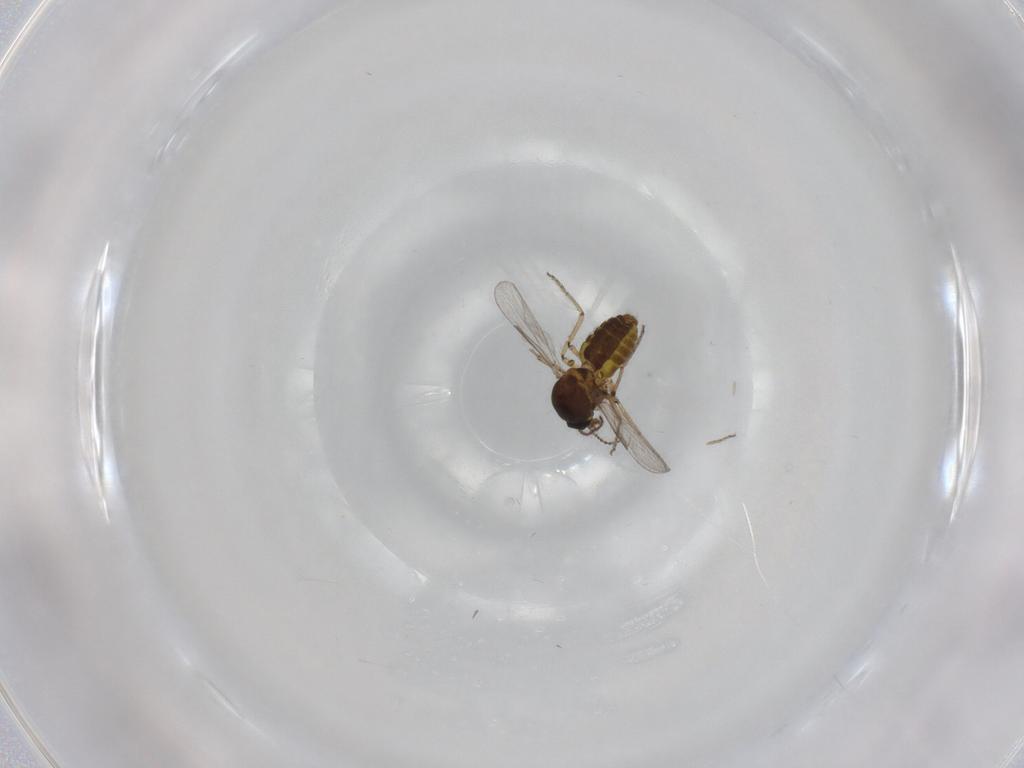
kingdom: Animalia
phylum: Arthropoda
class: Insecta
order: Diptera
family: Ceratopogonidae
